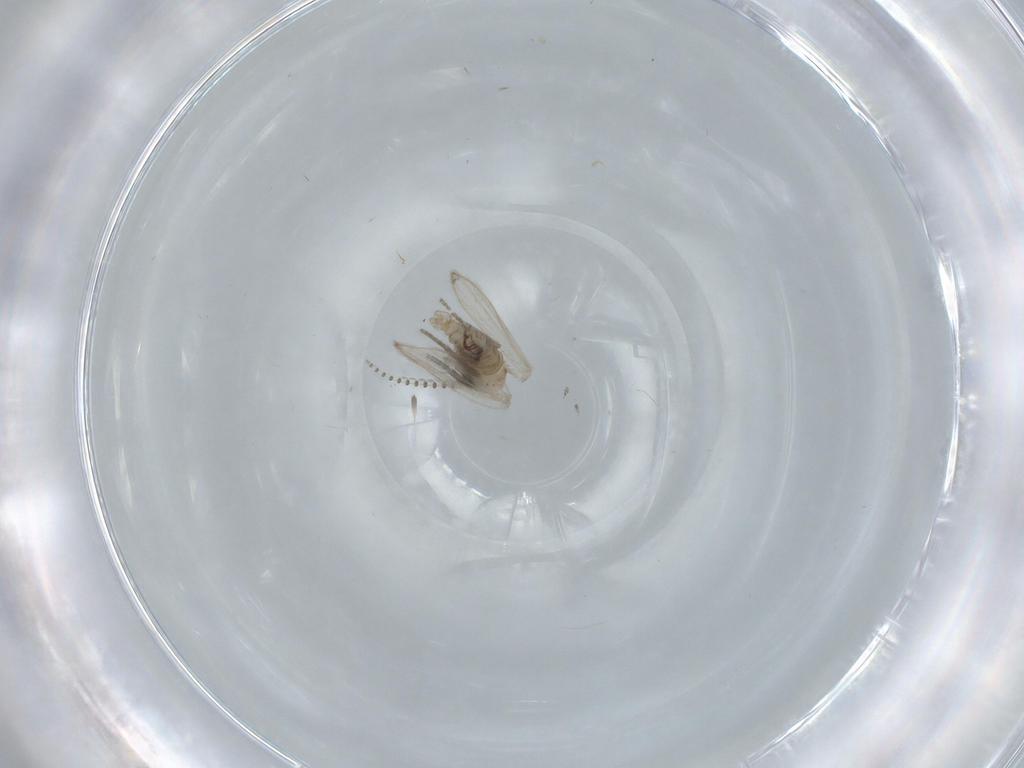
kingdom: Animalia
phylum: Arthropoda
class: Insecta
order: Diptera
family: Psychodidae
